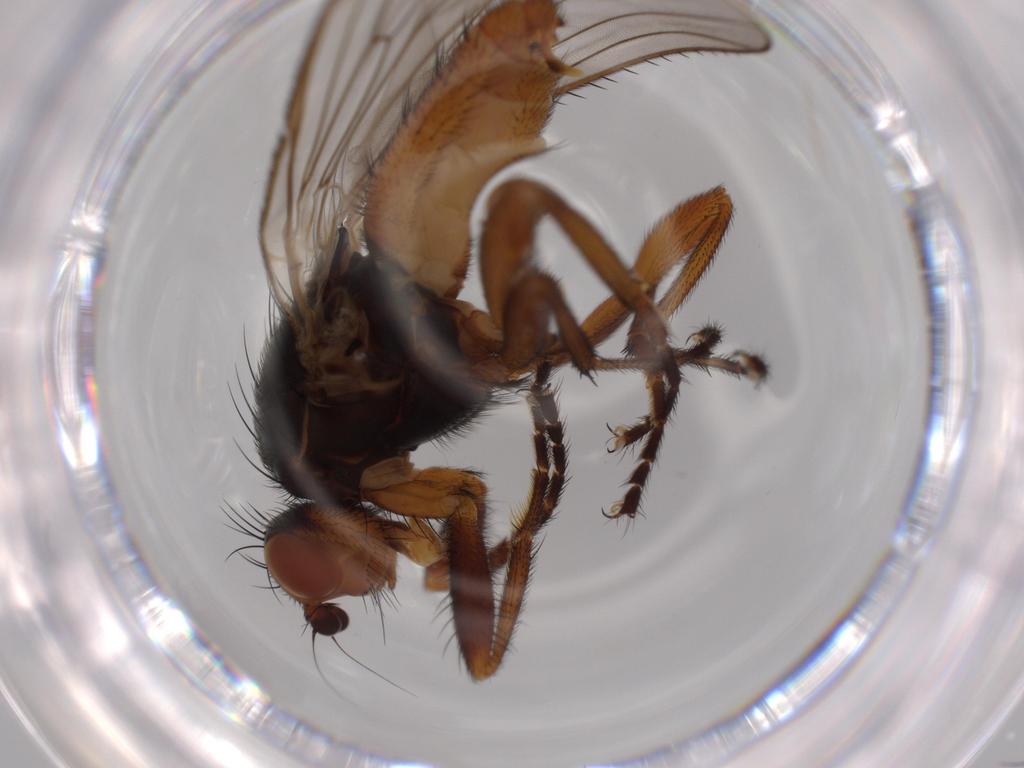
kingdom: Animalia
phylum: Arthropoda
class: Insecta
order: Diptera
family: Heleomyzidae
